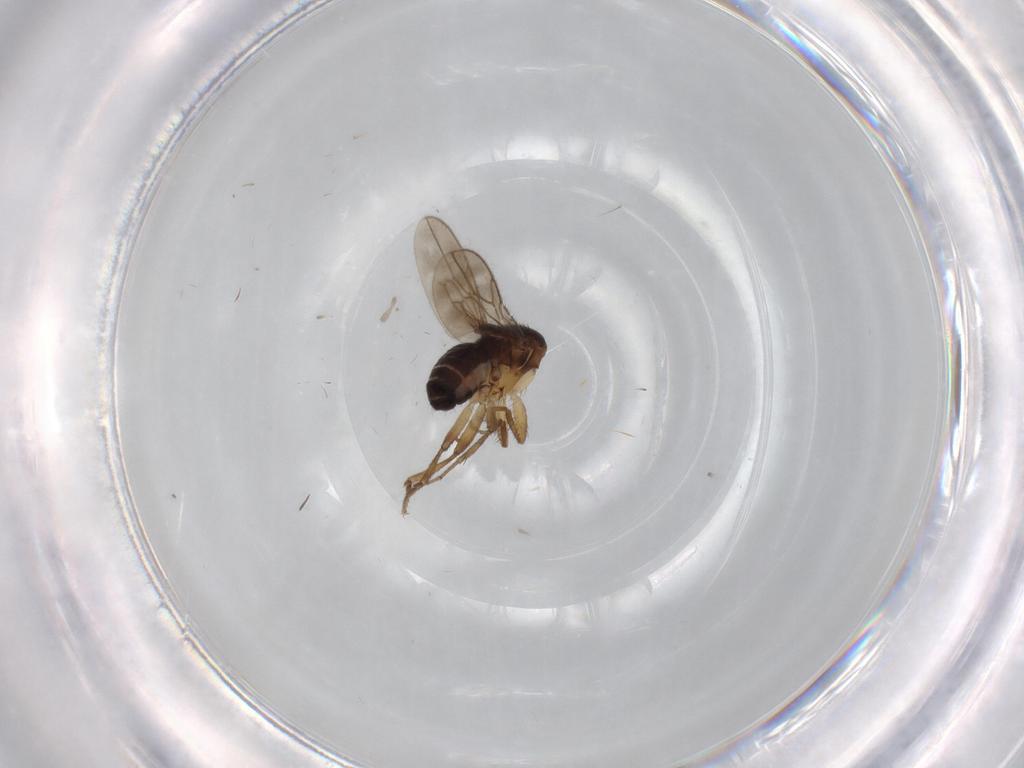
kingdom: Animalia
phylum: Arthropoda
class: Insecta
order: Diptera
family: Sphaeroceridae
